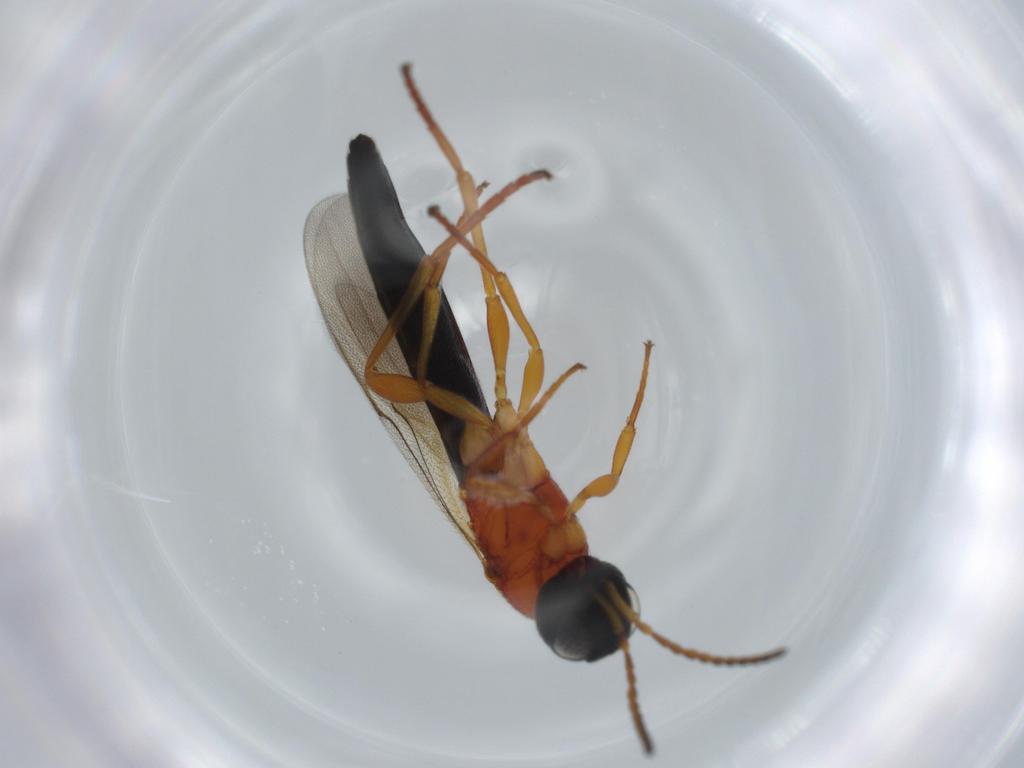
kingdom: Animalia
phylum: Arthropoda
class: Insecta
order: Hymenoptera
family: Scelionidae
